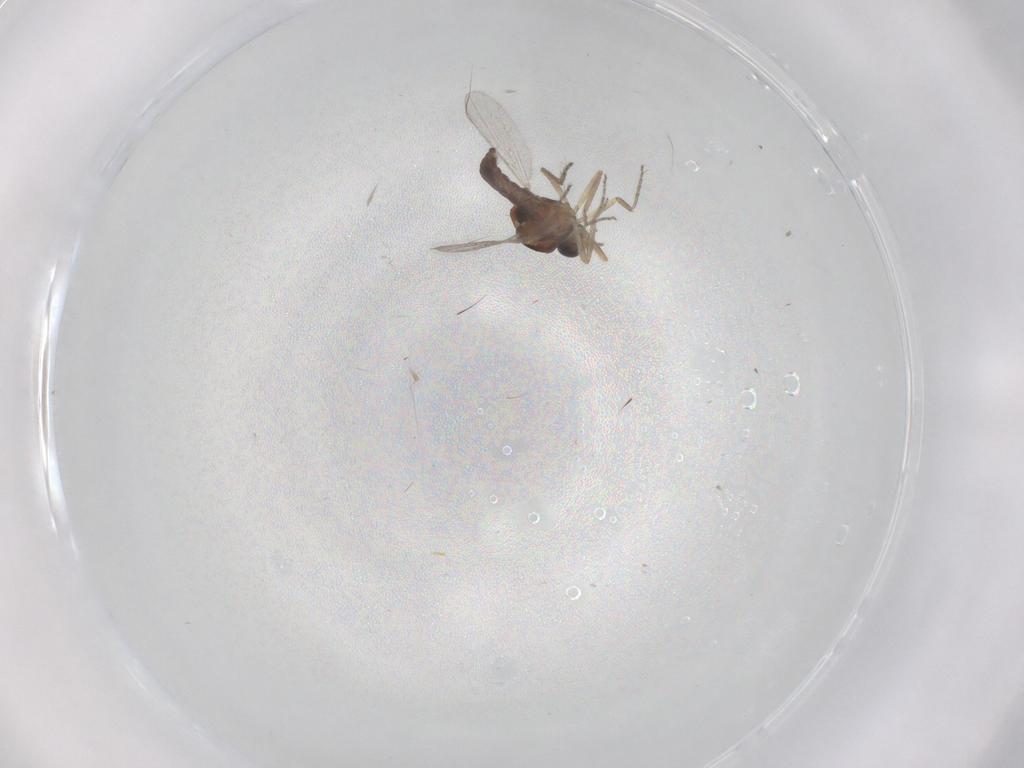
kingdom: Animalia
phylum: Arthropoda
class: Insecta
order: Diptera
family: Ceratopogonidae
